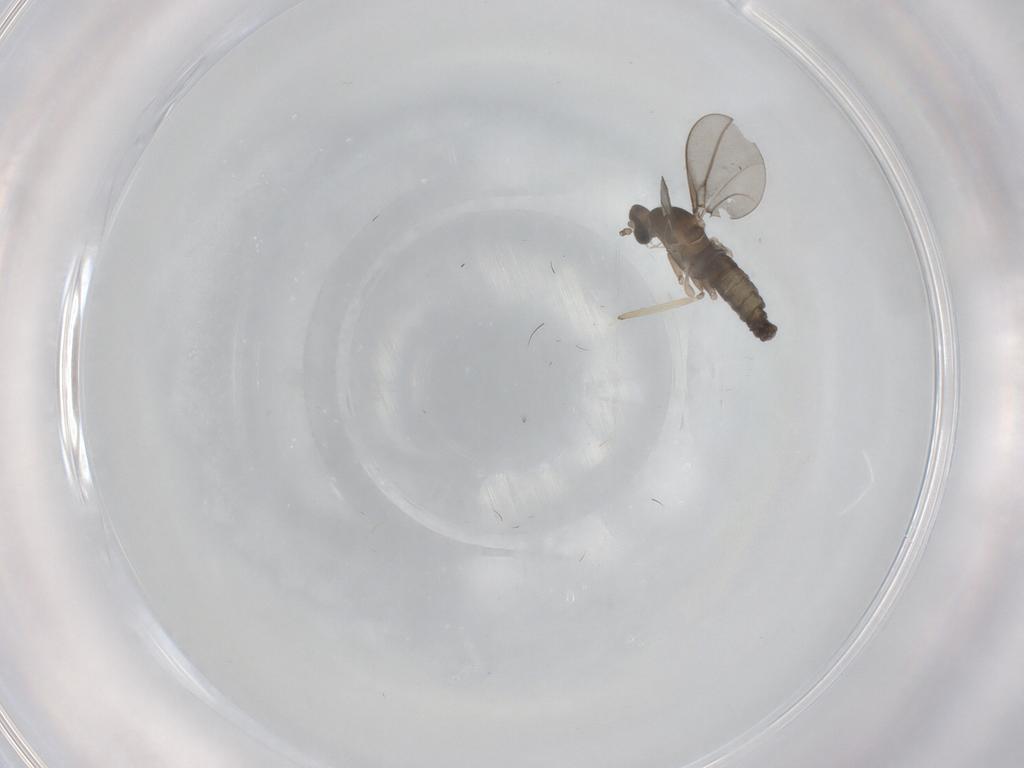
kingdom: Animalia
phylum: Arthropoda
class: Insecta
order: Diptera
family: Cecidomyiidae
